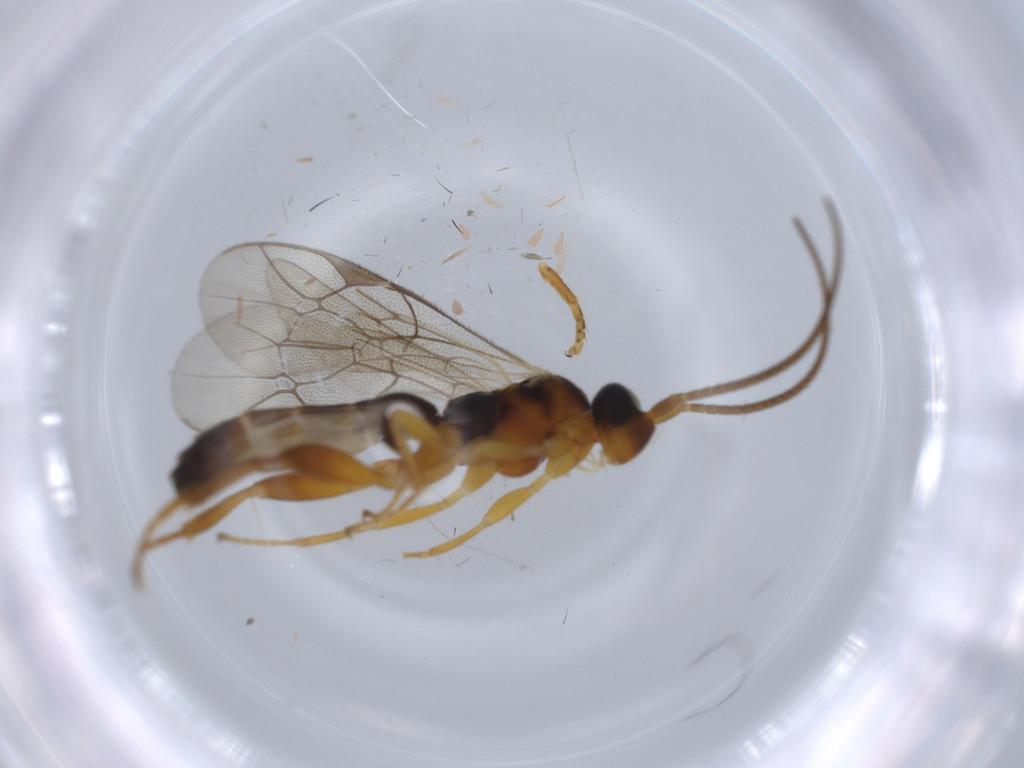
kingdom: Animalia
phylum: Arthropoda
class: Insecta
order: Hymenoptera
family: Ichneumonidae
